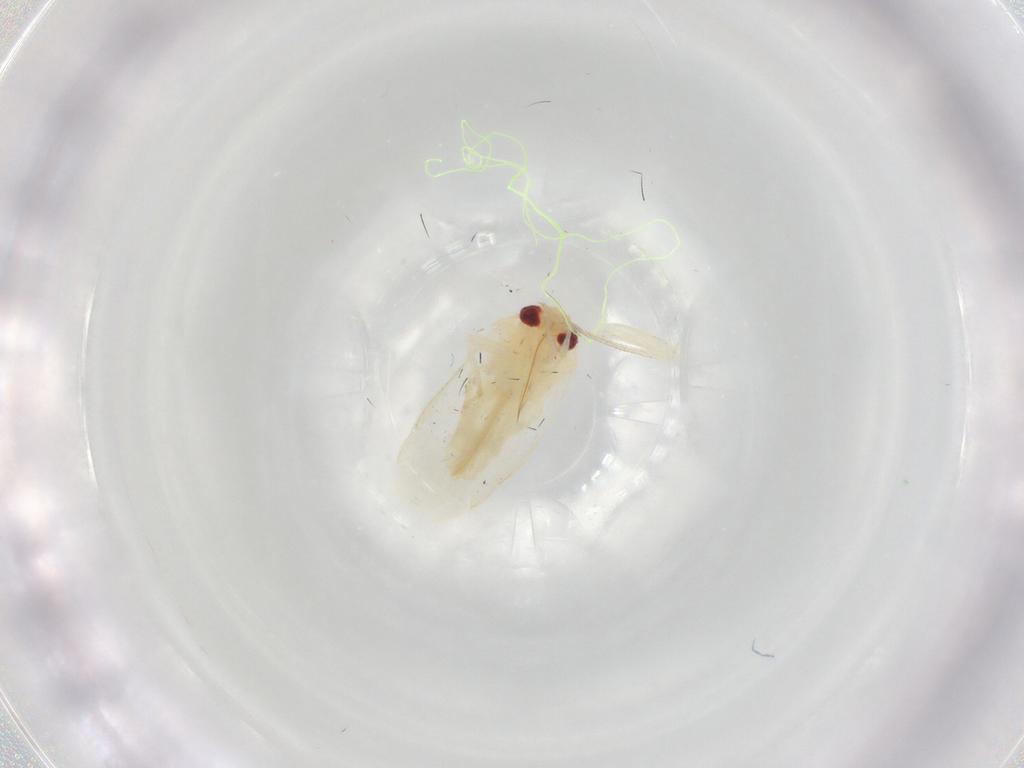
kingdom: Animalia
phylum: Arthropoda
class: Insecta
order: Hemiptera
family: Miridae
